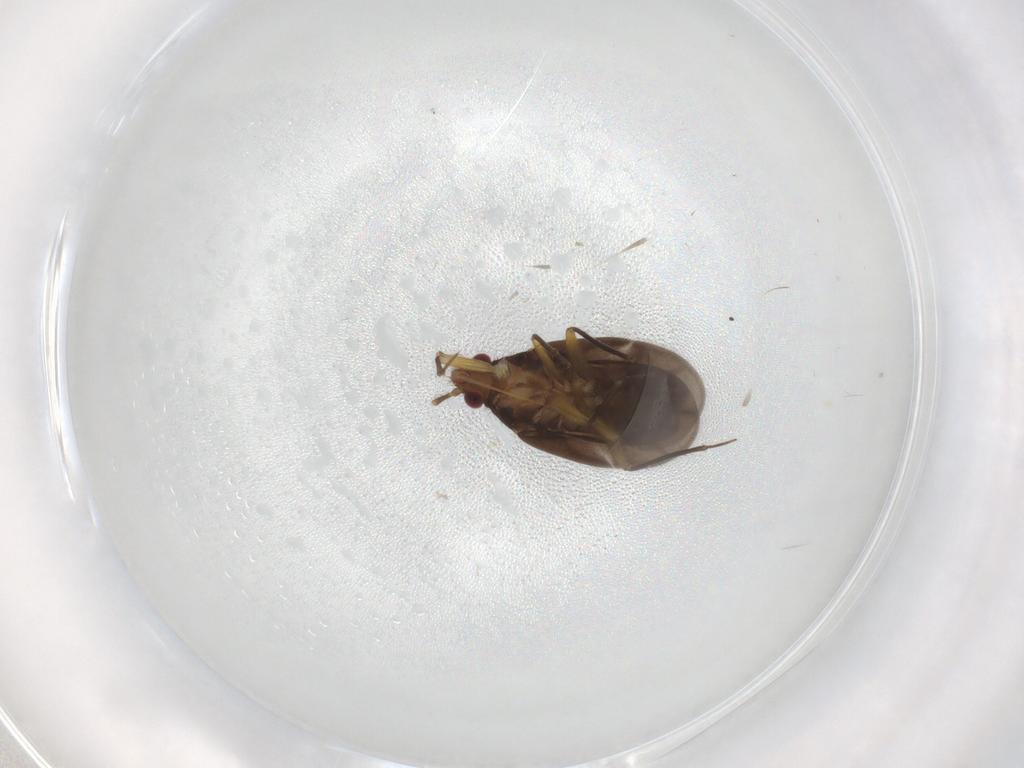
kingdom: Animalia
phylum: Arthropoda
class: Insecta
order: Hemiptera
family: Ceratocombidae
